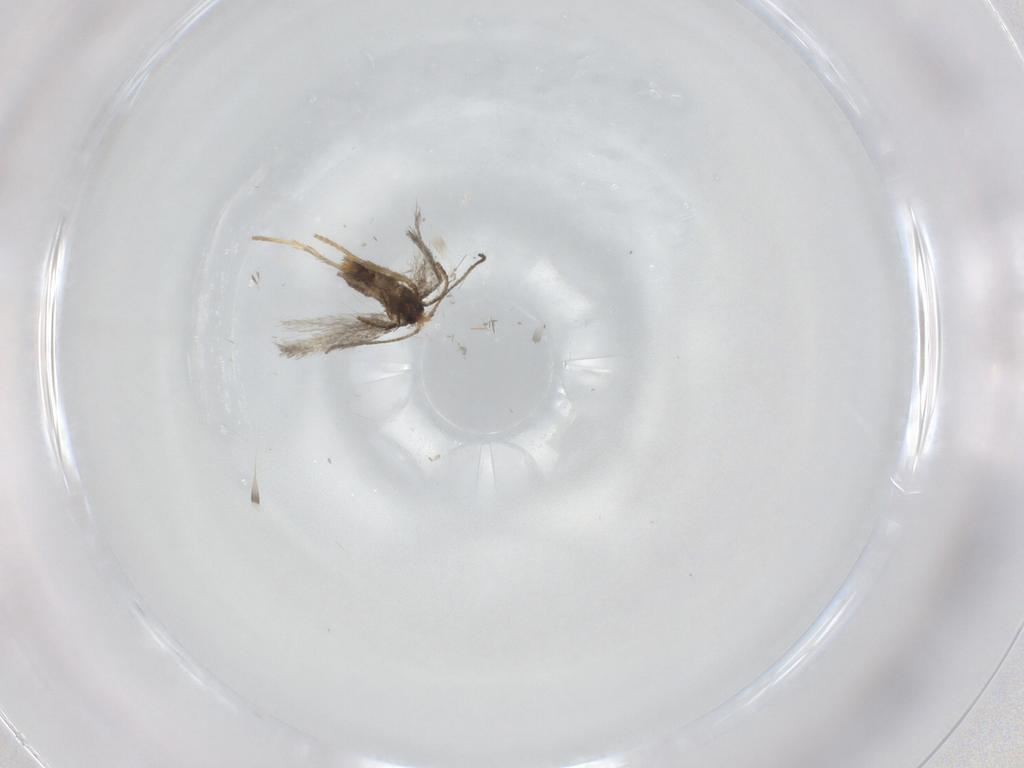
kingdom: Animalia
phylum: Arthropoda
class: Insecta
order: Lepidoptera
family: Nepticulidae
